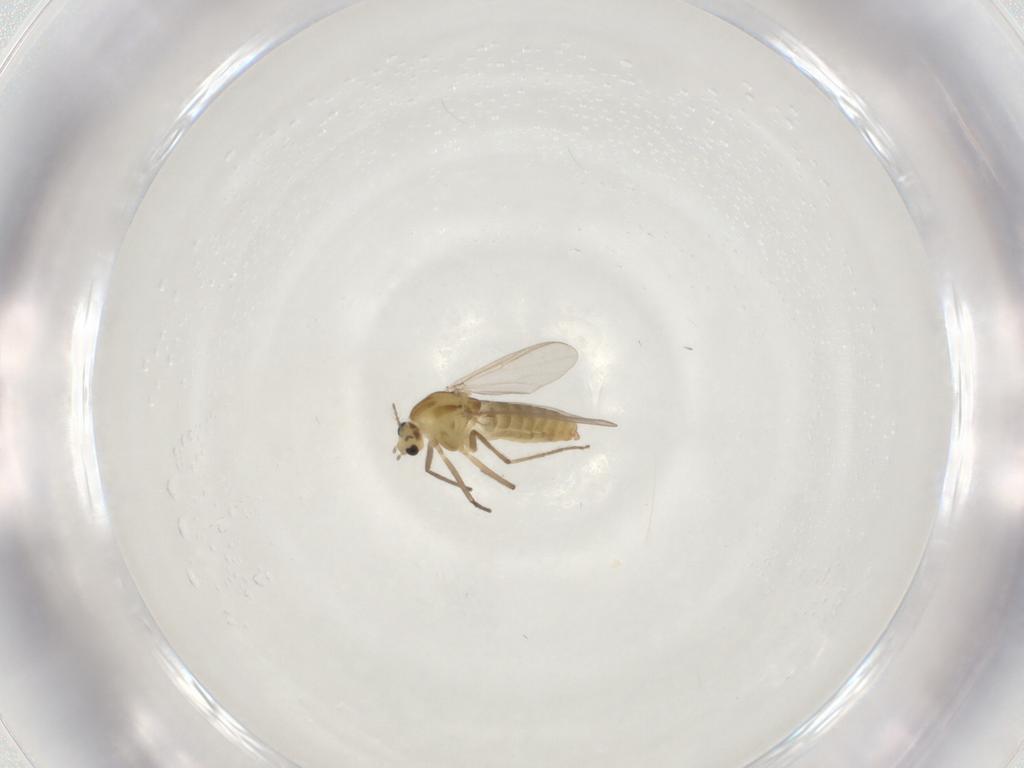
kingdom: Animalia
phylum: Arthropoda
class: Insecta
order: Diptera
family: Chironomidae
